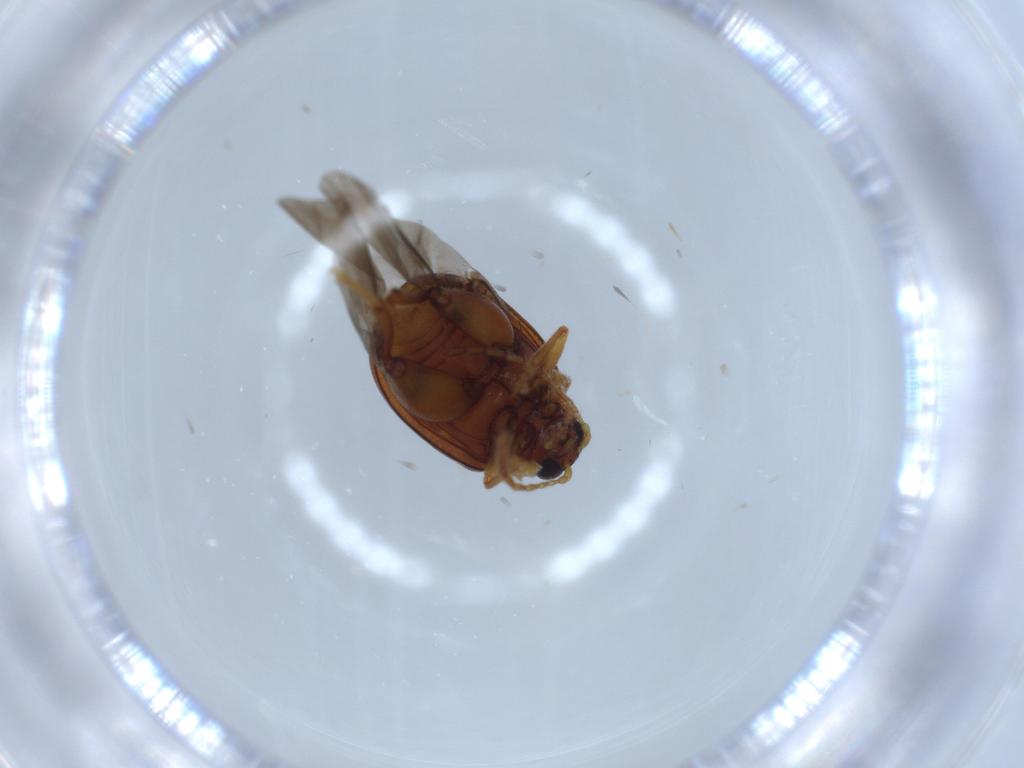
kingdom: Animalia
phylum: Arthropoda
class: Insecta
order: Coleoptera
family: Chrysomelidae
